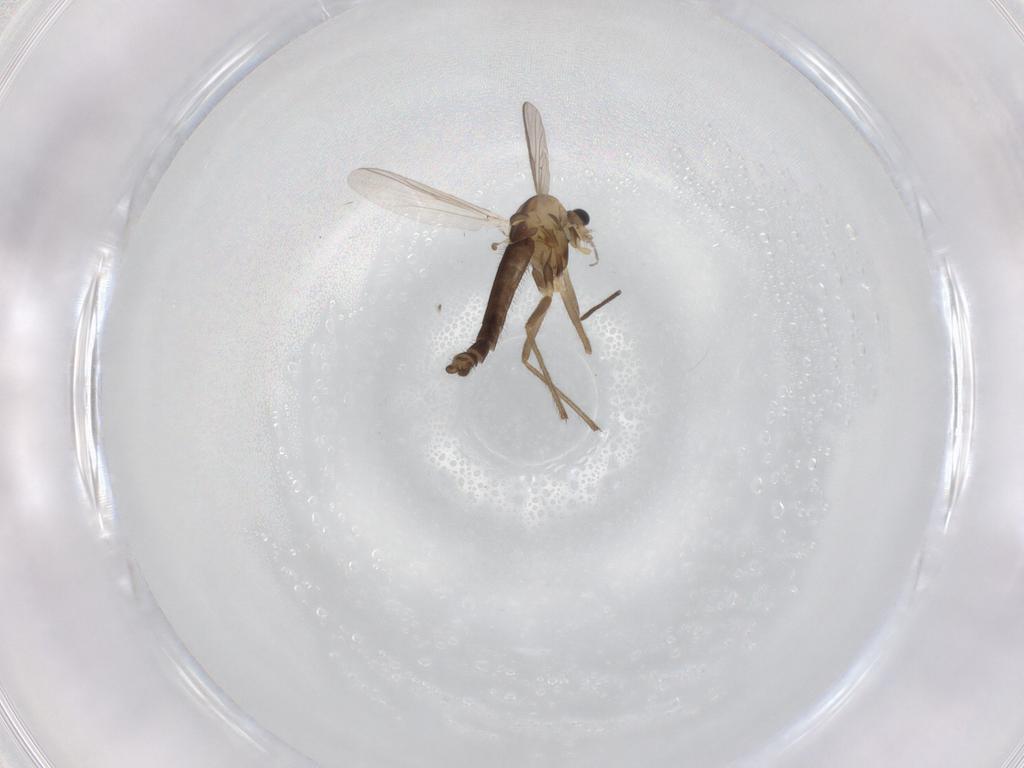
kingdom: Animalia
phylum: Arthropoda
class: Insecta
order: Diptera
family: Chironomidae
